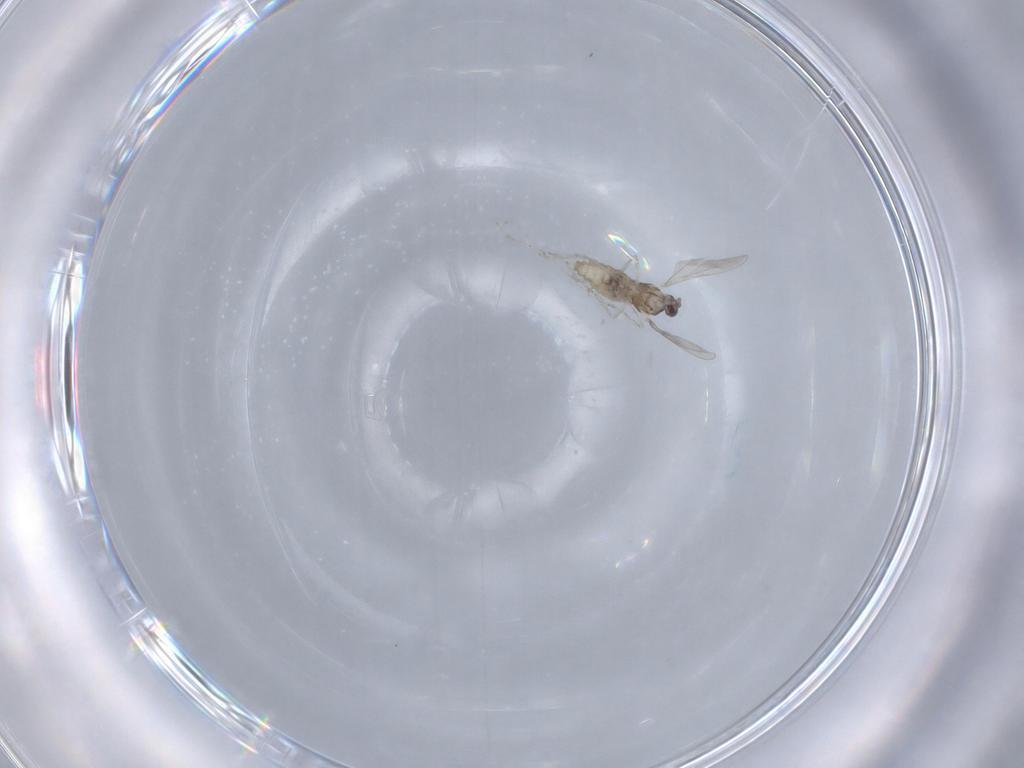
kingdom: Animalia
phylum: Arthropoda
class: Insecta
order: Diptera
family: Cecidomyiidae
